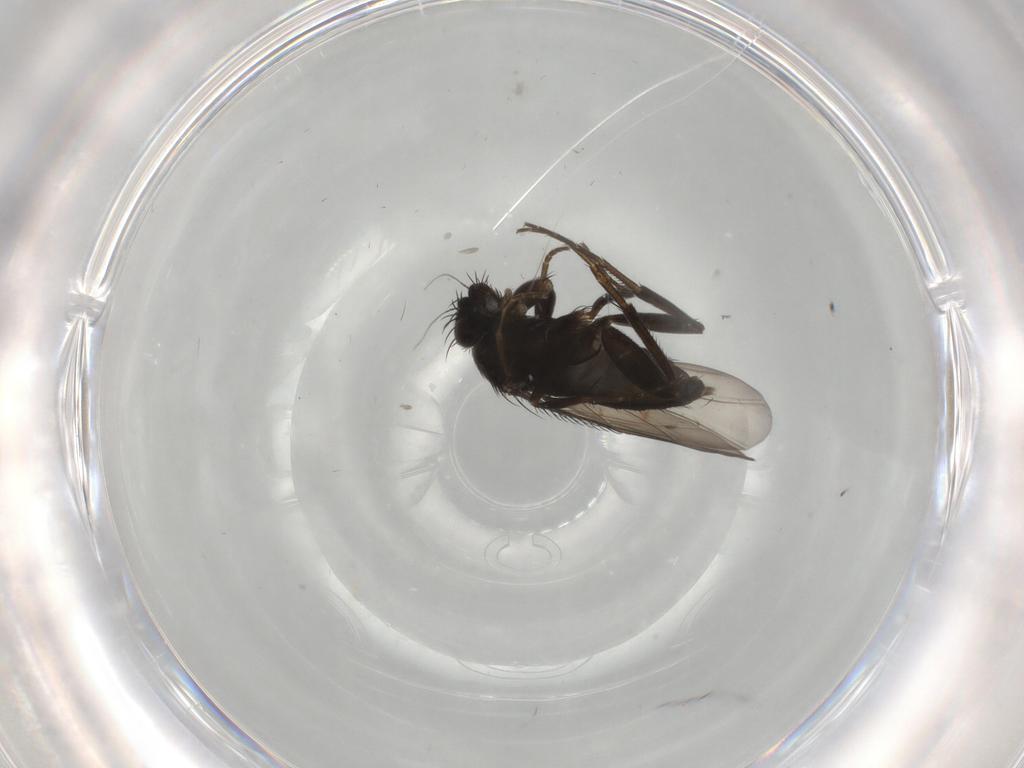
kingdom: Animalia
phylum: Arthropoda
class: Insecta
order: Diptera
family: Phoridae
